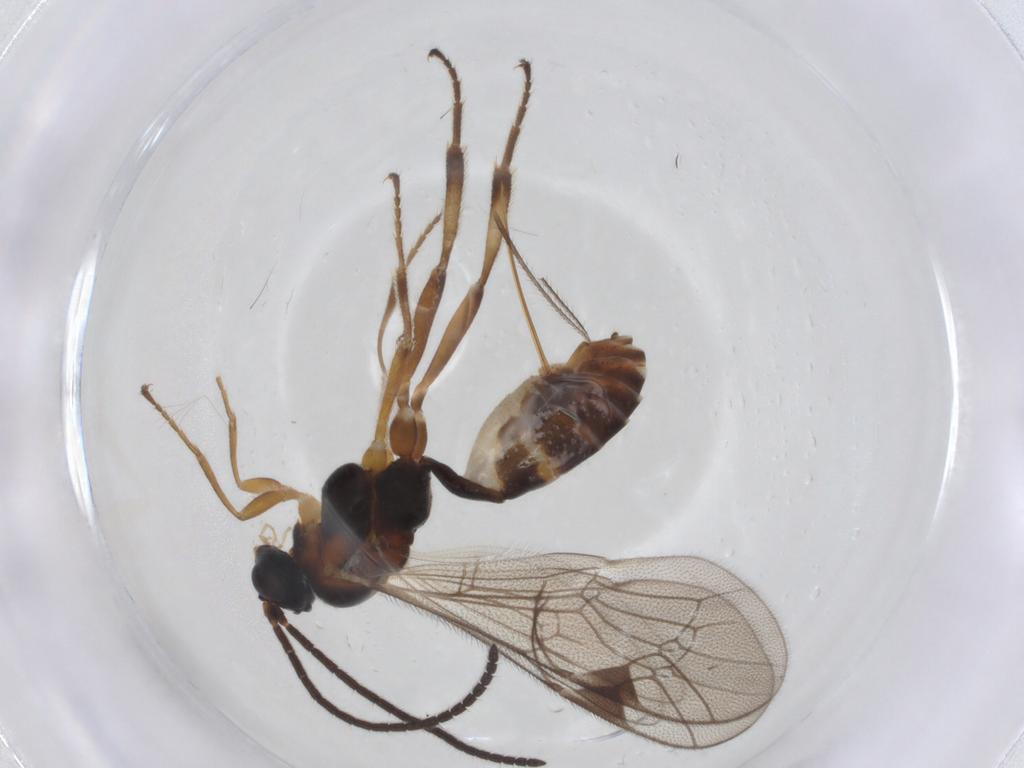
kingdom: Animalia
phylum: Arthropoda
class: Insecta
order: Hymenoptera
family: Ichneumonidae
